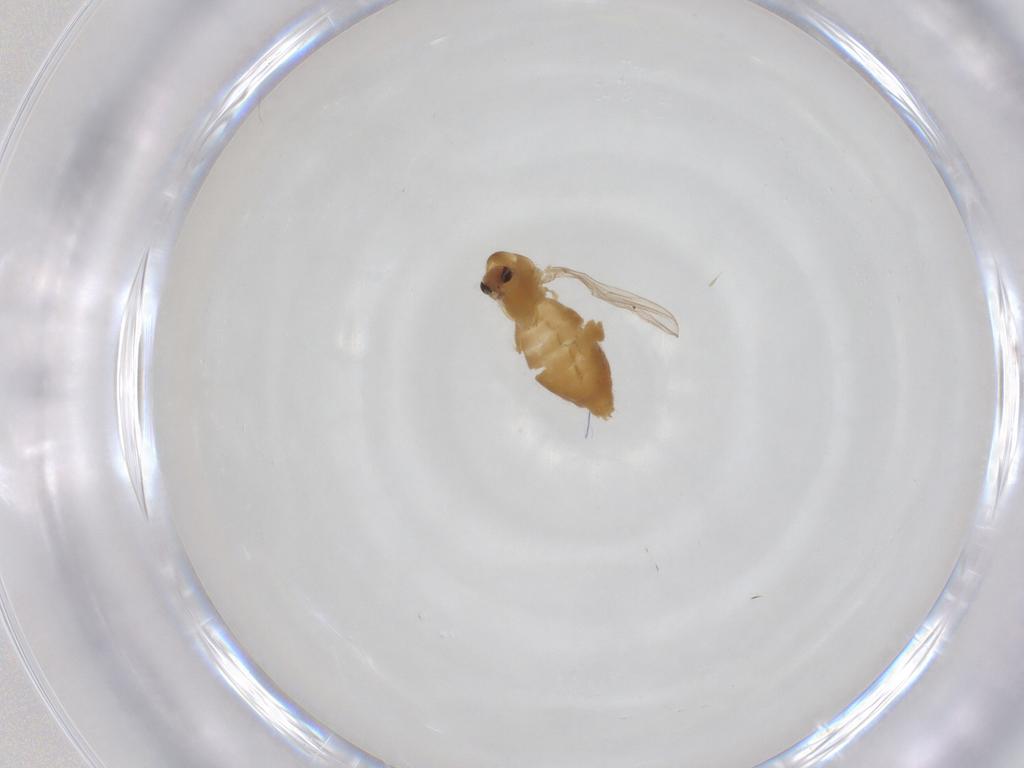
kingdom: Animalia
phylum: Arthropoda
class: Insecta
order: Diptera
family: Chironomidae
